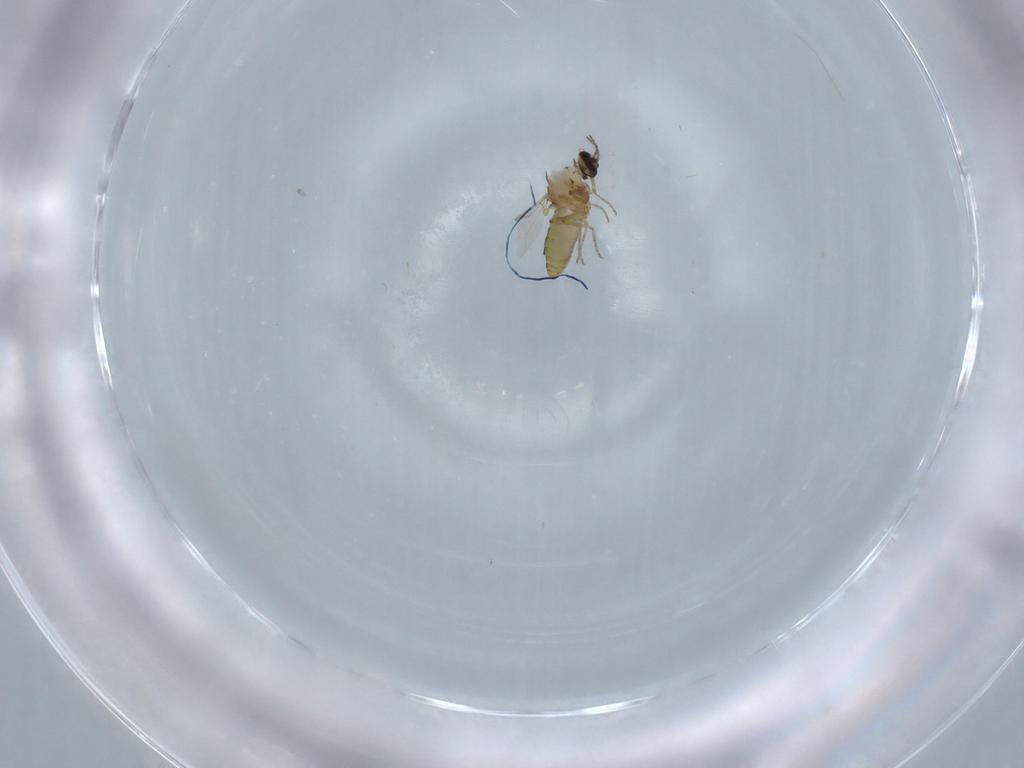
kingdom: Animalia
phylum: Arthropoda
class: Insecta
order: Diptera
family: Ceratopogonidae
